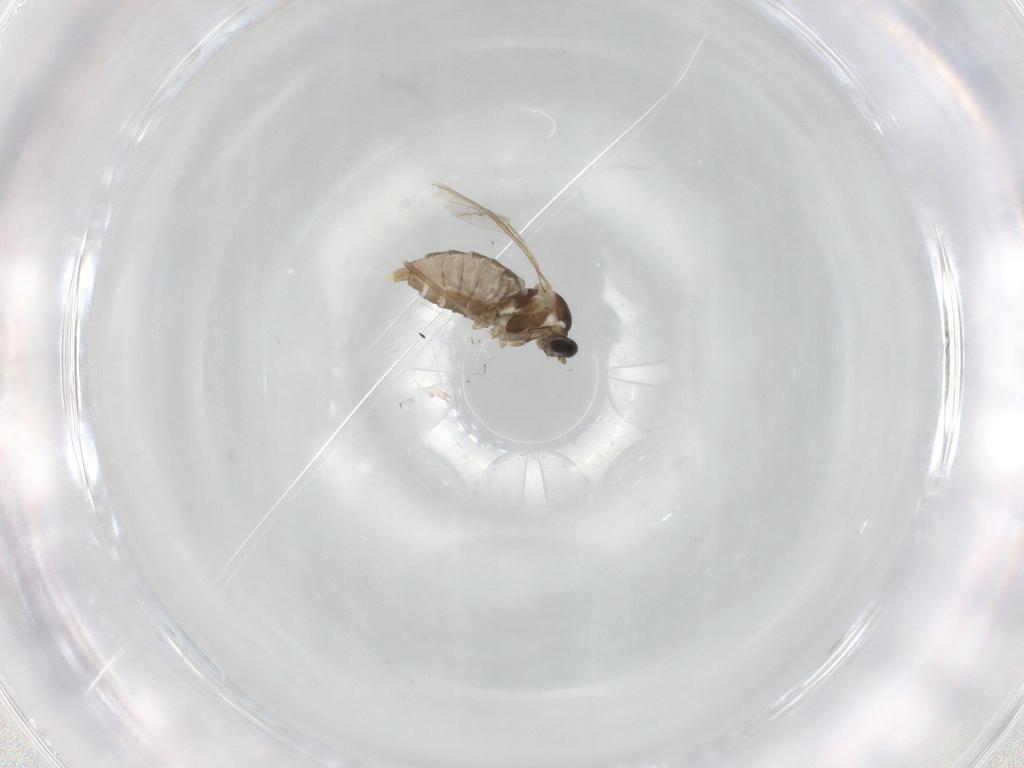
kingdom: Animalia
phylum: Arthropoda
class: Insecta
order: Diptera
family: Cecidomyiidae
